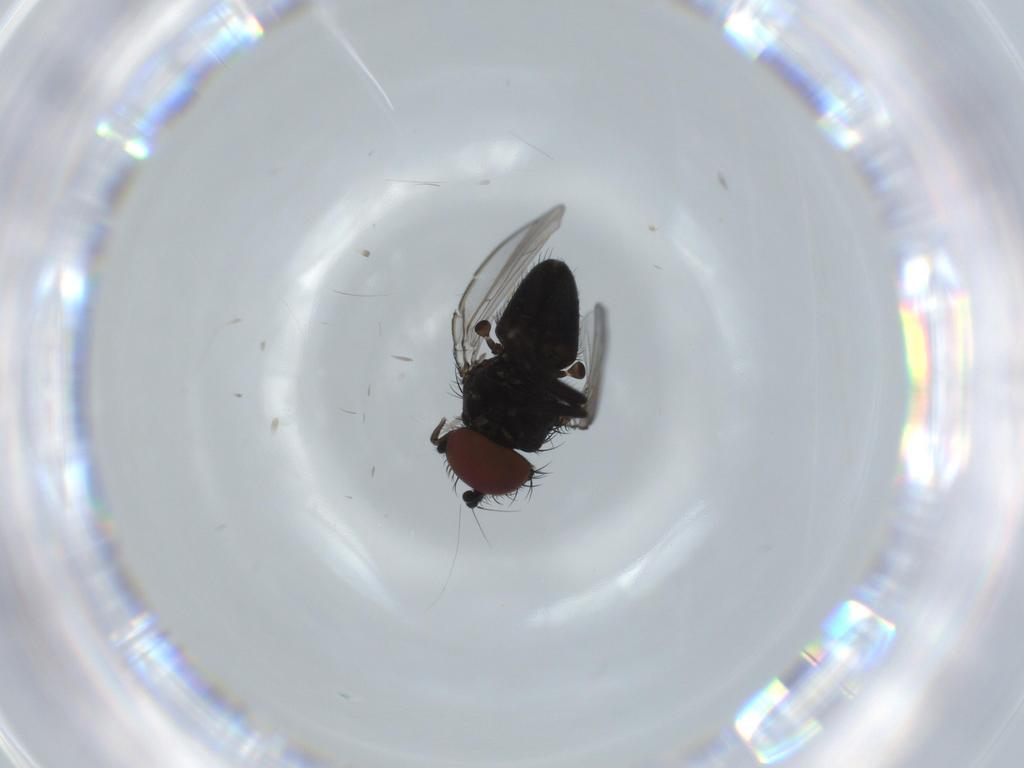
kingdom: Animalia
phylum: Arthropoda
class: Insecta
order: Diptera
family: Milichiidae
